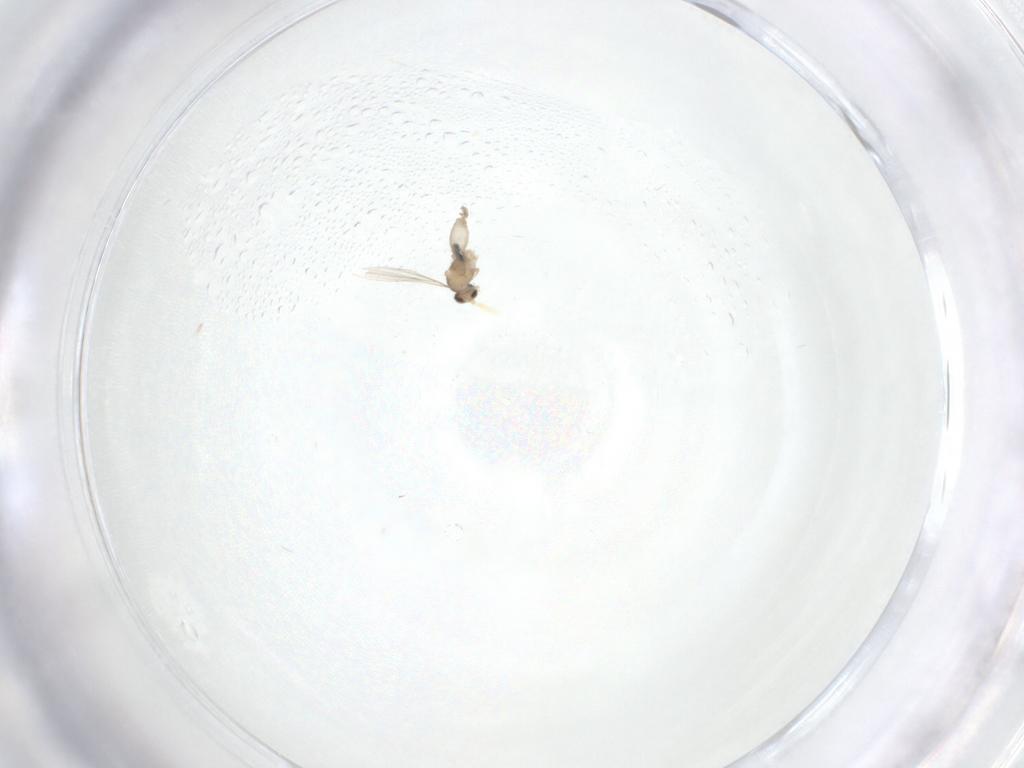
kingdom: Animalia
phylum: Arthropoda
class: Insecta
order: Diptera
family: Cecidomyiidae
